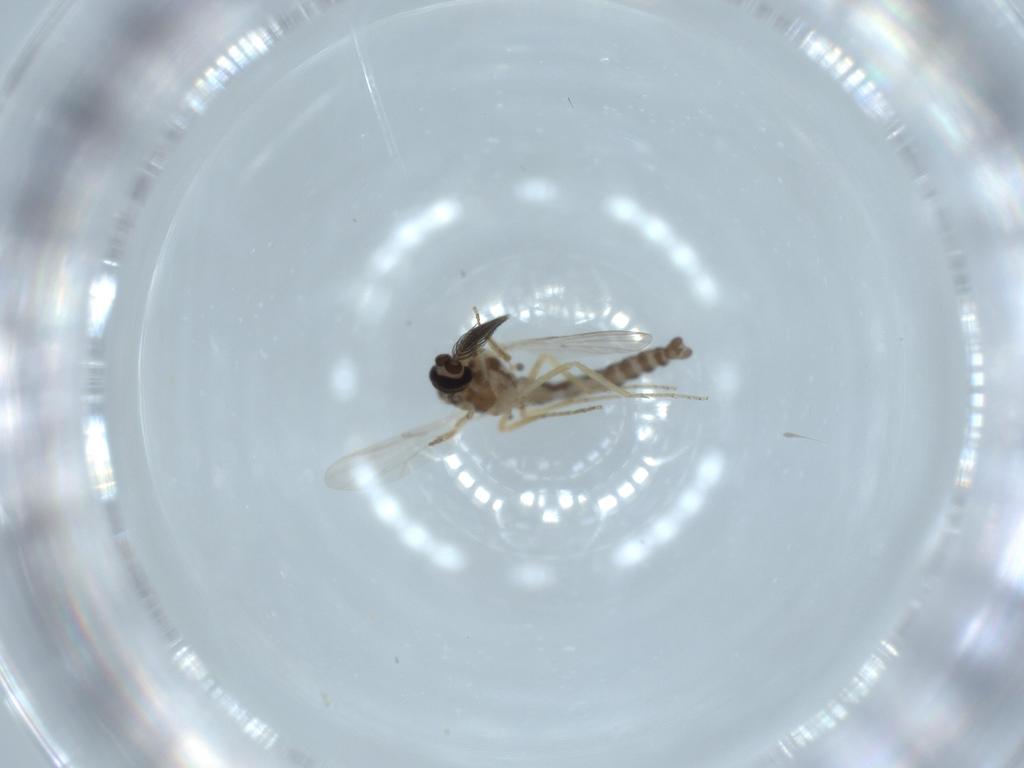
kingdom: Animalia
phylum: Arthropoda
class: Insecta
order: Diptera
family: Ceratopogonidae
